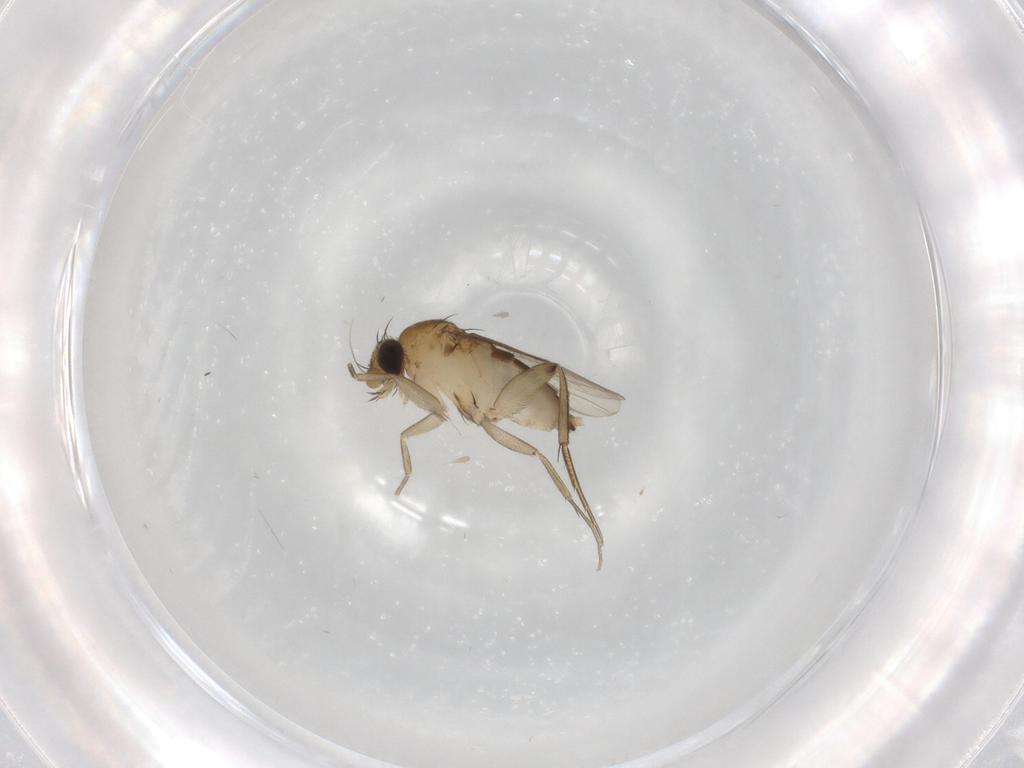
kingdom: Animalia
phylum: Arthropoda
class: Insecta
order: Diptera
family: Phoridae
